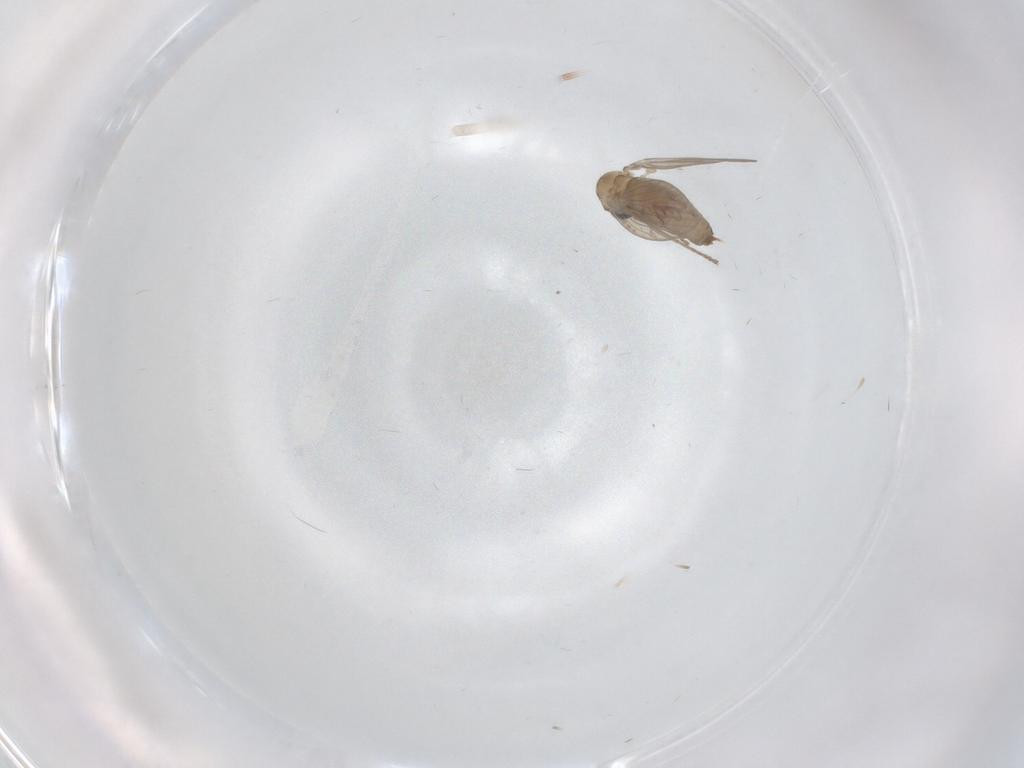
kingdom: Animalia
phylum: Arthropoda
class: Insecta
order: Diptera
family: Psychodidae
